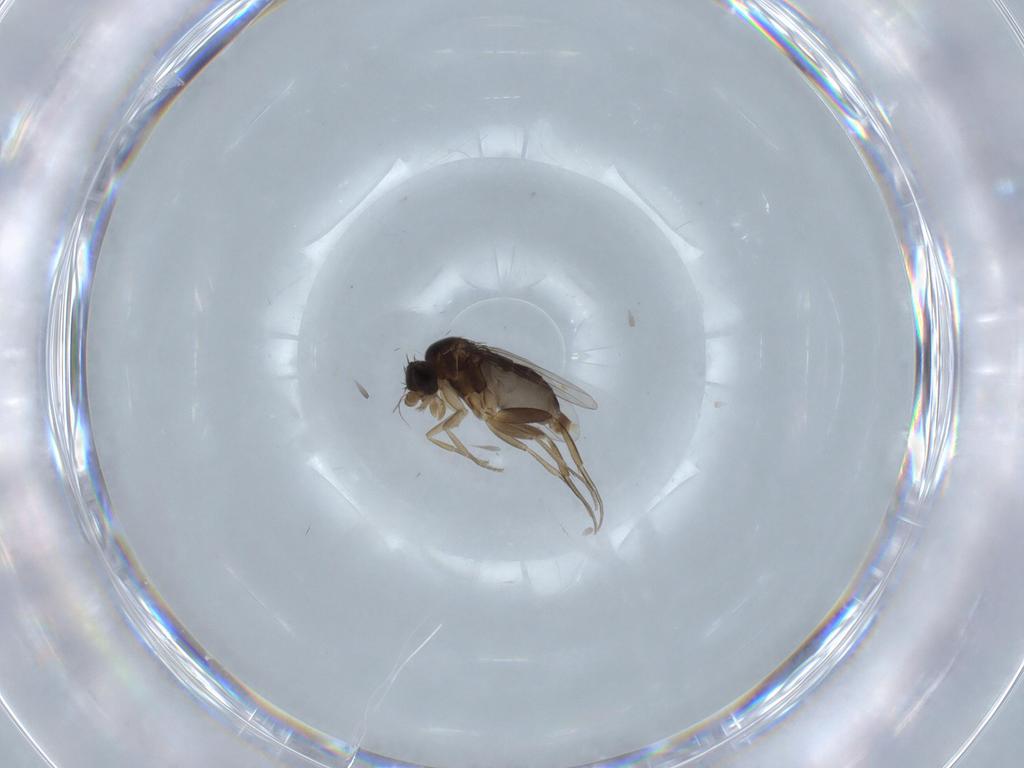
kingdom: Animalia
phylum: Arthropoda
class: Insecta
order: Diptera
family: Phoridae
